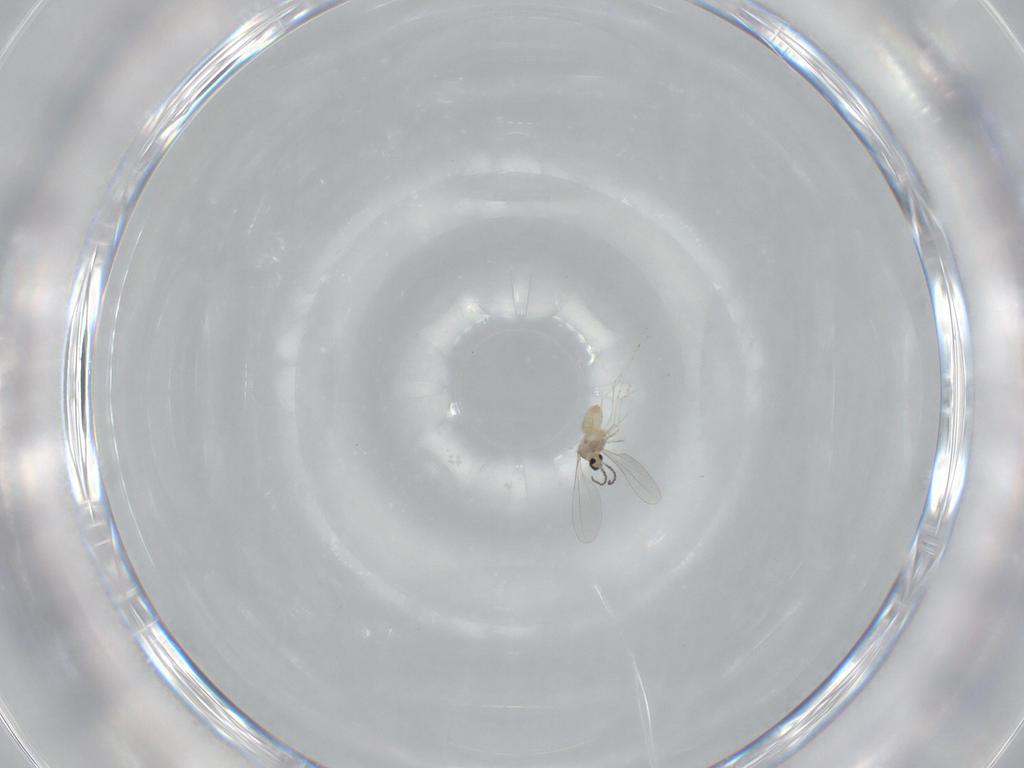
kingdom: Animalia
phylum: Arthropoda
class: Insecta
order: Diptera
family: Cecidomyiidae
